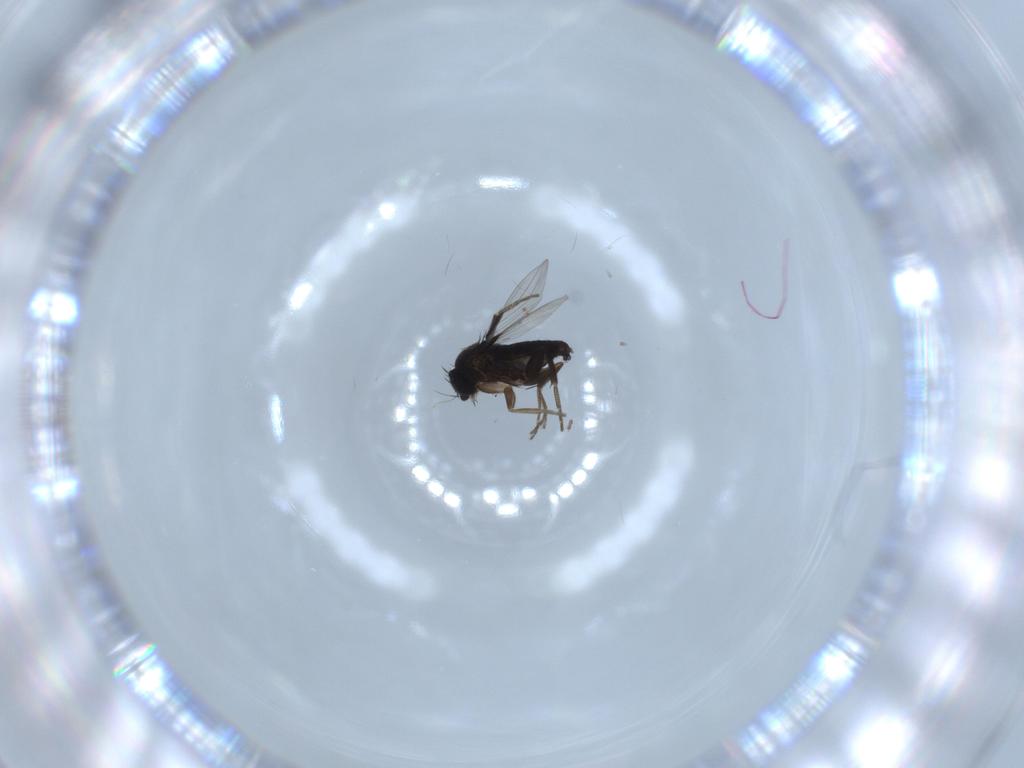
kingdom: Animalia
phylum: Arthropoda
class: Insecta
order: Diptera
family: Phoridae
